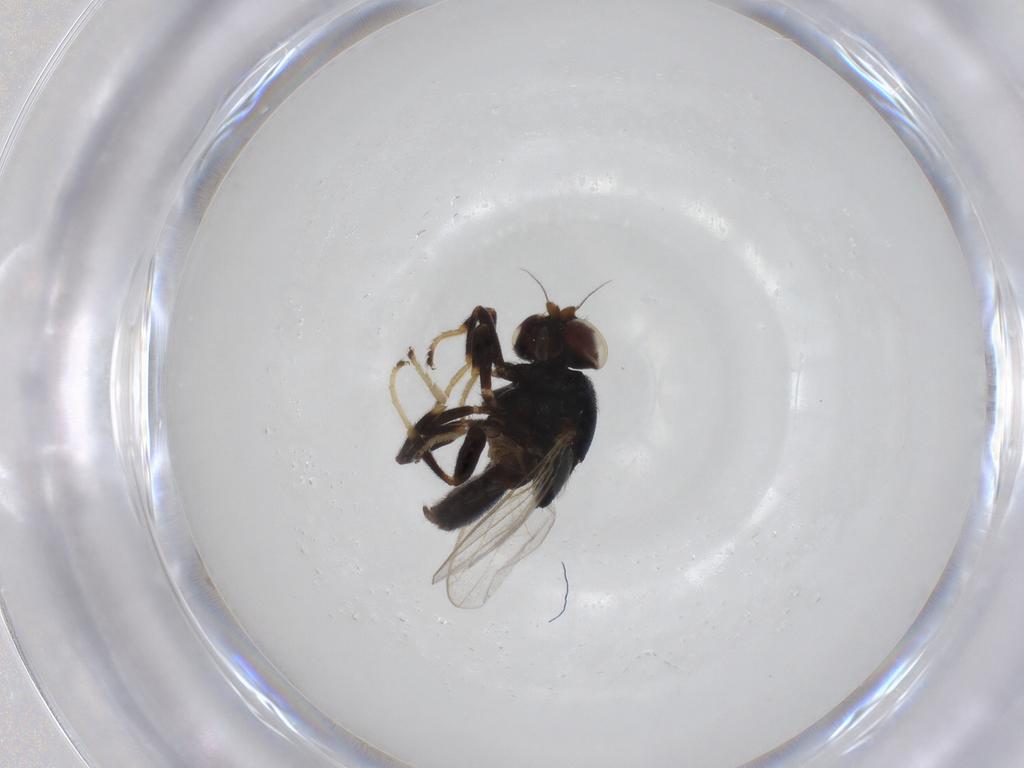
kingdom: Animalia
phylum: Arthropoda
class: Insecta
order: Diptera
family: Chloropidae
